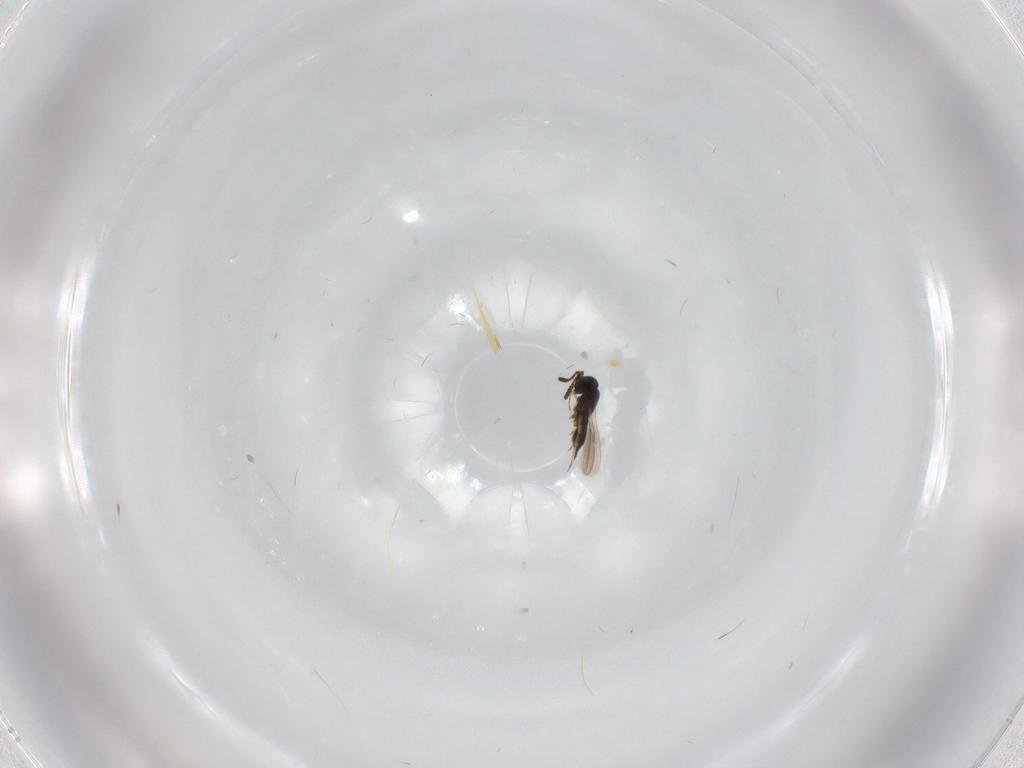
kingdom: Animalia
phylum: Arthropoda
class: Insecta
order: Hymenoptera
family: Scelionidae
